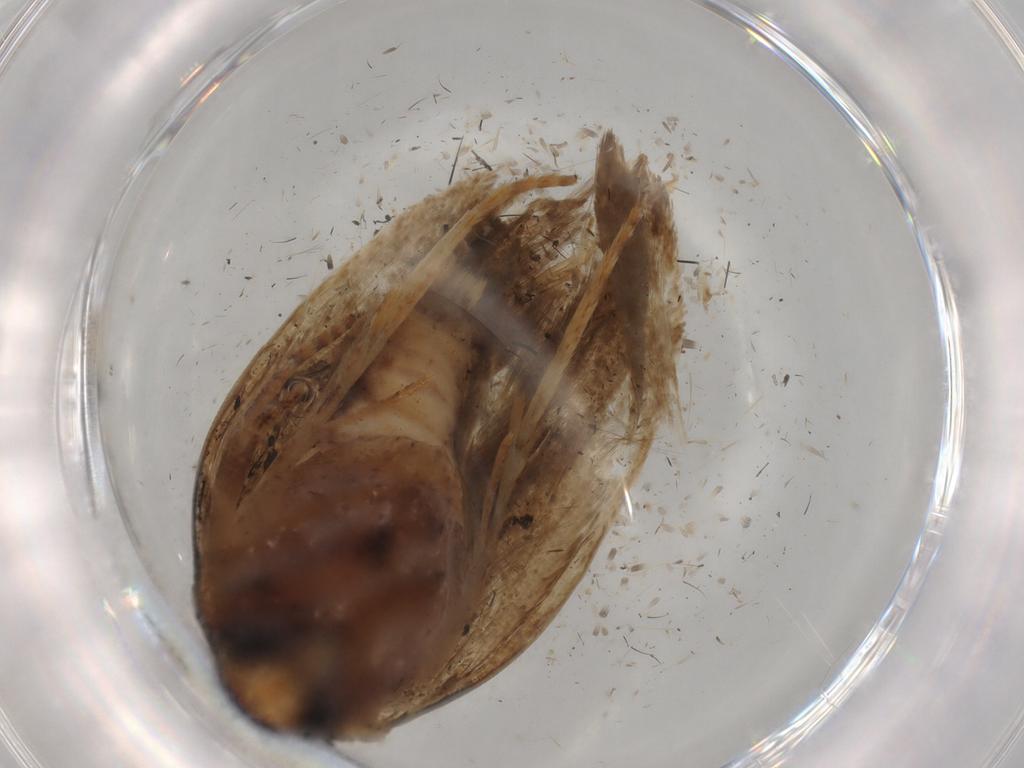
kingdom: Animalia
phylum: Arthropoda
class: Insecta
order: Lepidoptera
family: Crambidae
